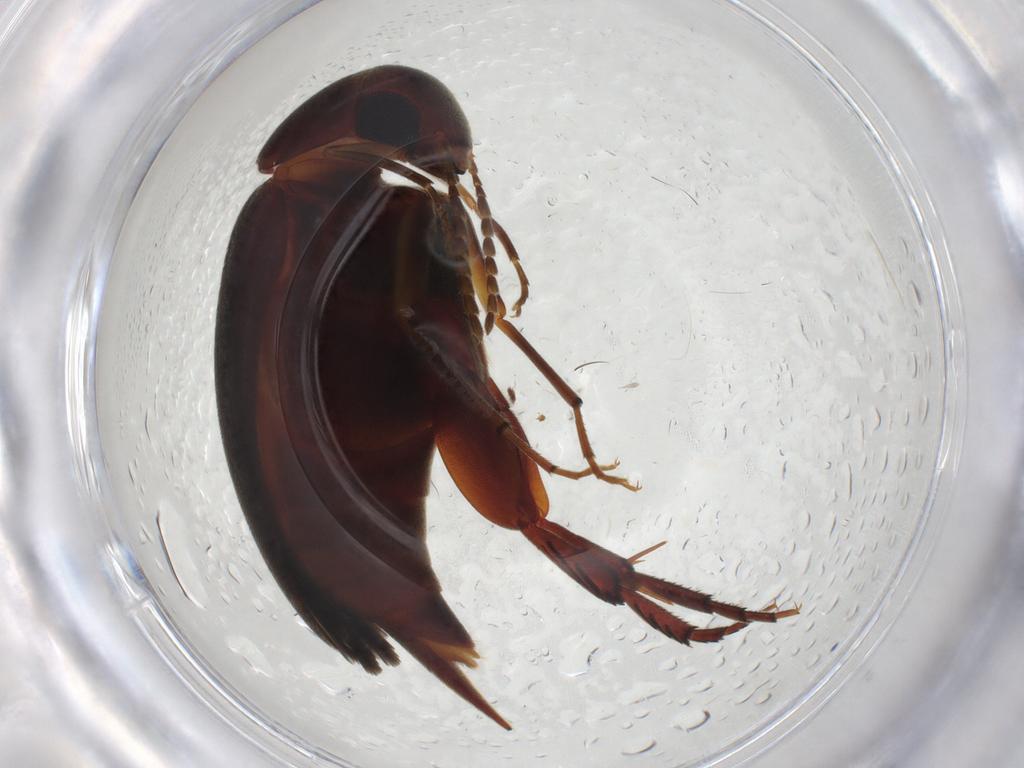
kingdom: Animalia
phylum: Arthropoda
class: Insecta
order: Coleoptera
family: Mordellidae
